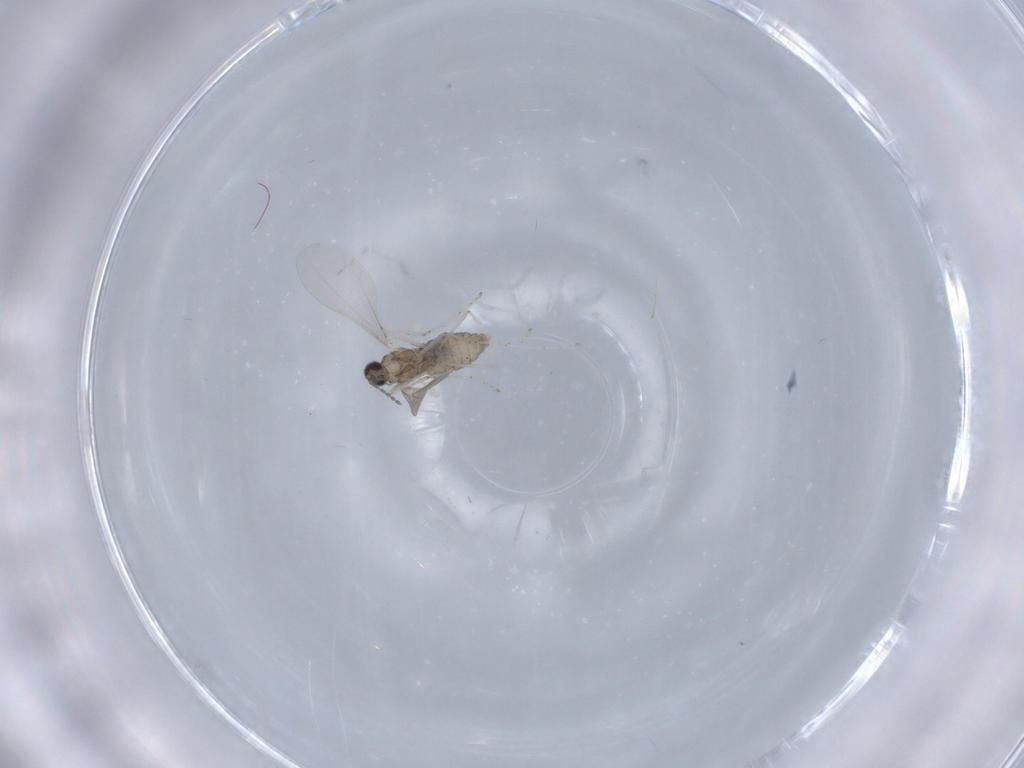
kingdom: Animalia
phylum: Arthropoda
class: Insecta
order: Diptera
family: Cecidomyiidae
